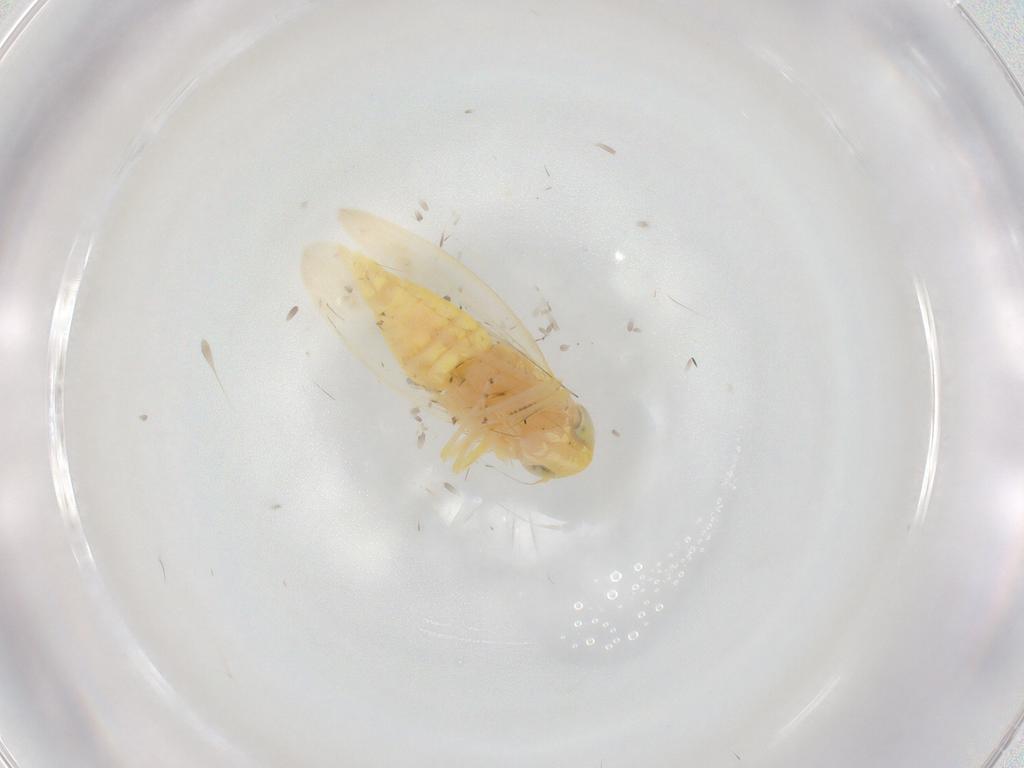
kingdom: Animalia
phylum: Arthropoda
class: Insecta
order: Hemiptera
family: Cicadellidae
